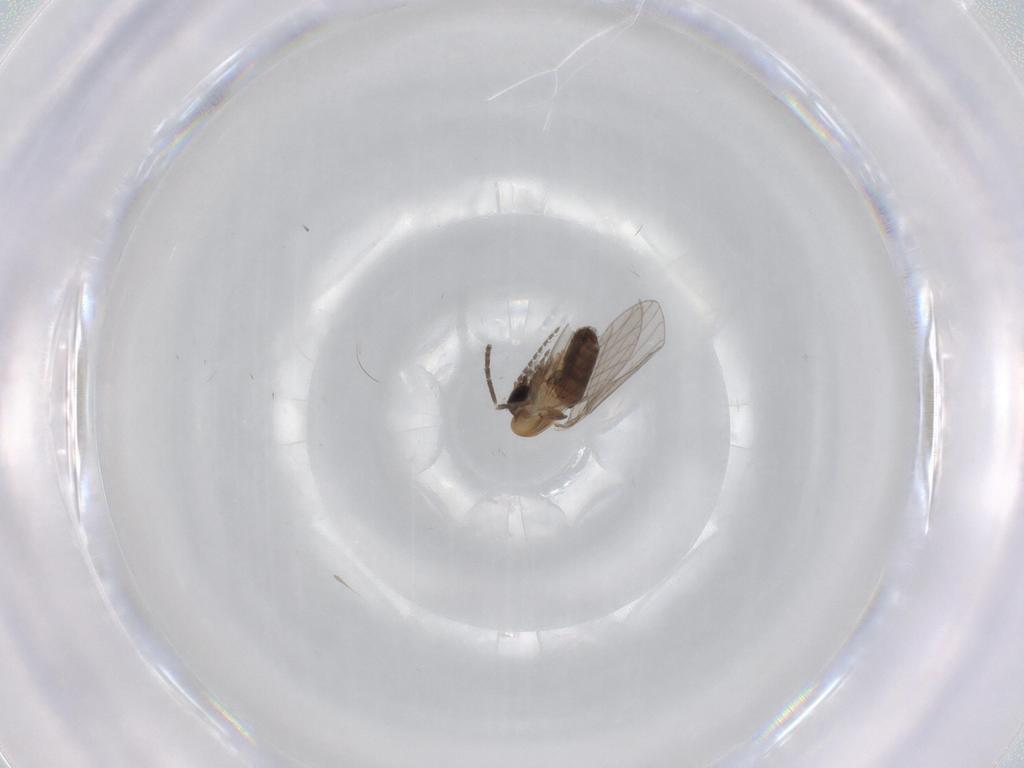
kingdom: Animalia
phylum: Arthropoda
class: Insecta
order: Diptera
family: Psychodidae
